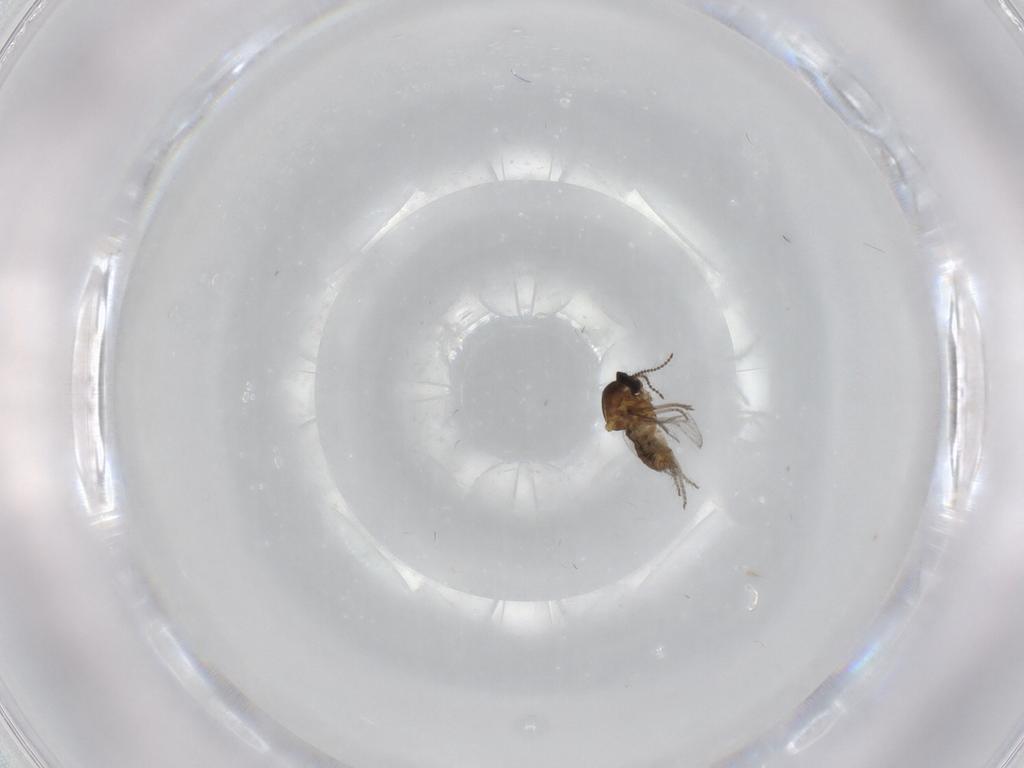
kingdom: Animalia
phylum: Arthropoda
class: Insecta
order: Diptera
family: Ceratopogonidae
